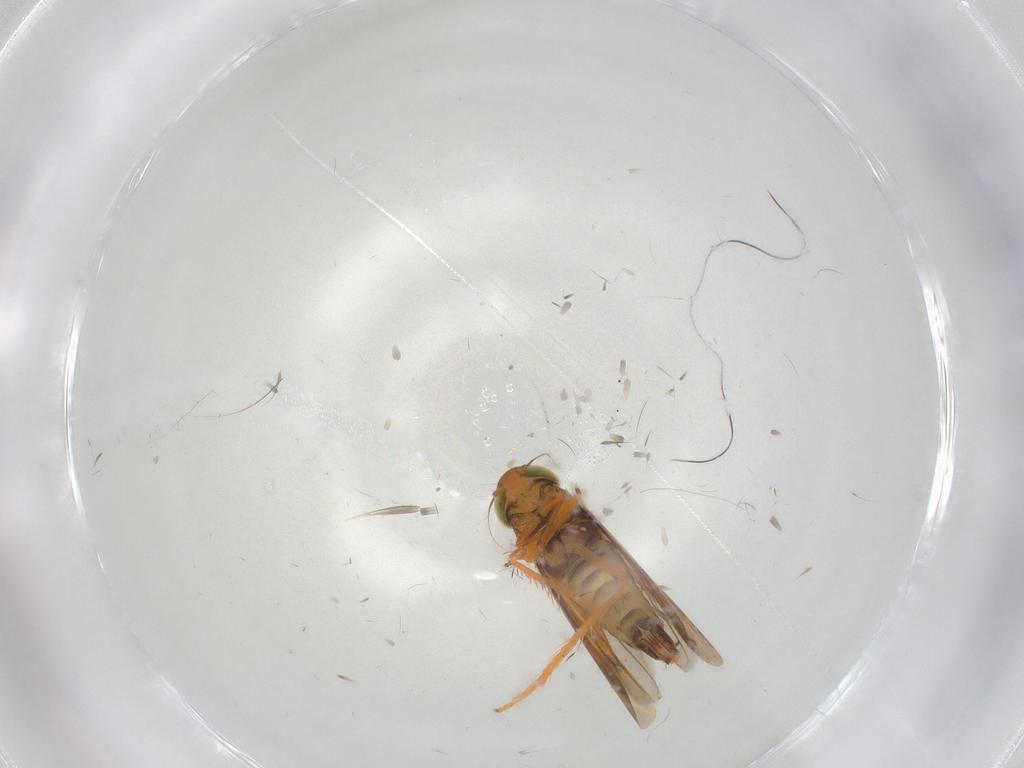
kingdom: Animalia
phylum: Arthropoda
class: Insecta
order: Hemiptera
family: Cicadellidae
